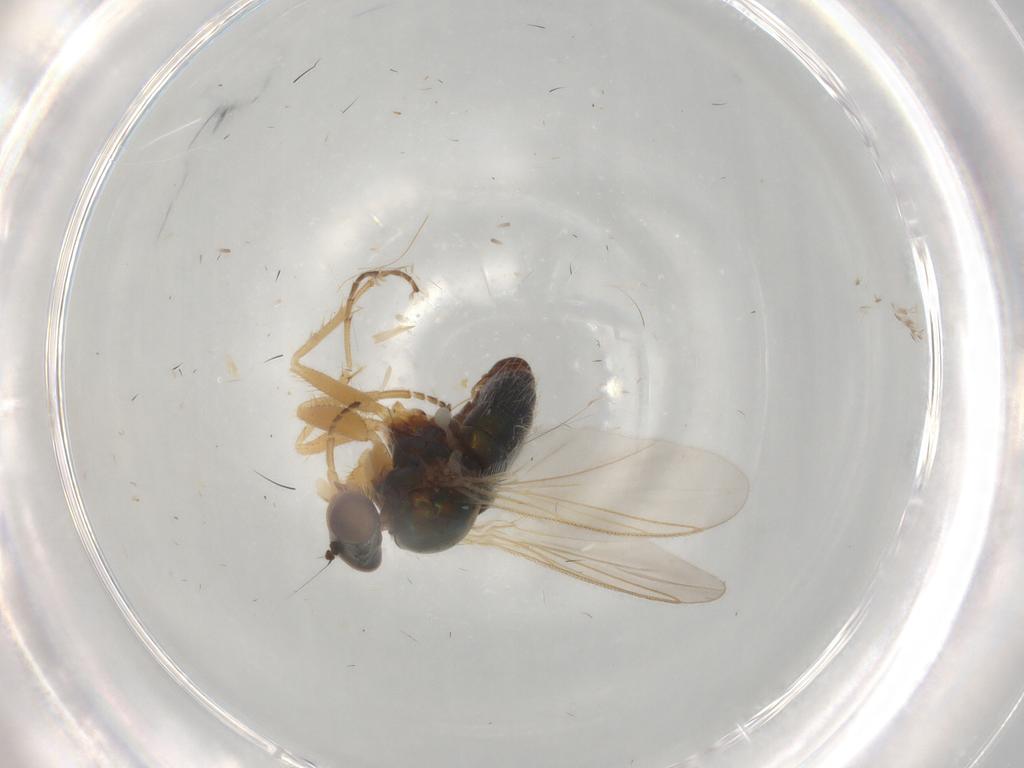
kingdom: Animalia
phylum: Arthropoda
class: Insecta
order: Diptera
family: Dolichopodidae
